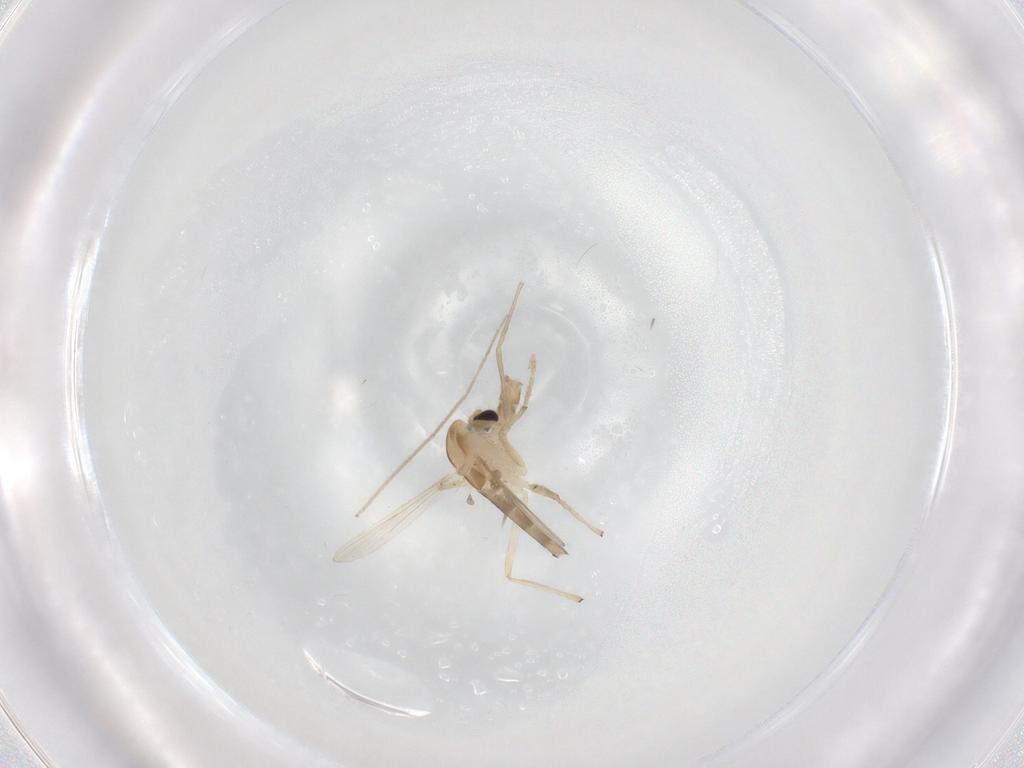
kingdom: Animalia
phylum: Arthropoda
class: Insecta
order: Diptera
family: Chironomidae
